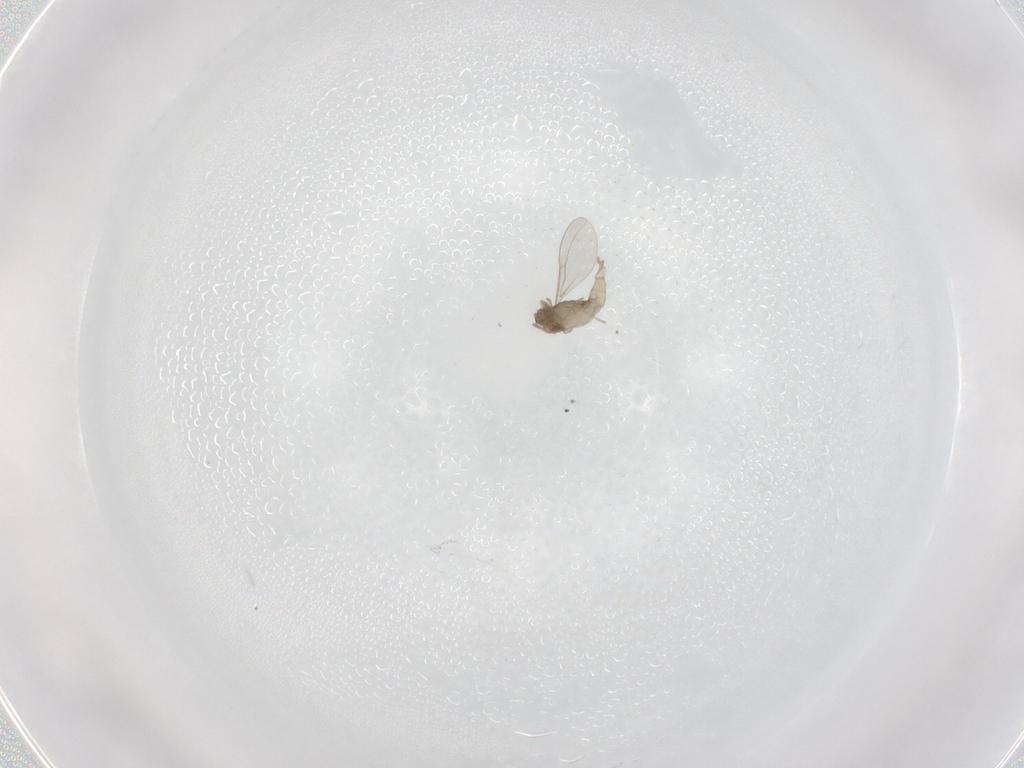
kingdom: Animalia
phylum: Arthropoda
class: Insecta
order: Diptera
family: Cecidomyiidae
